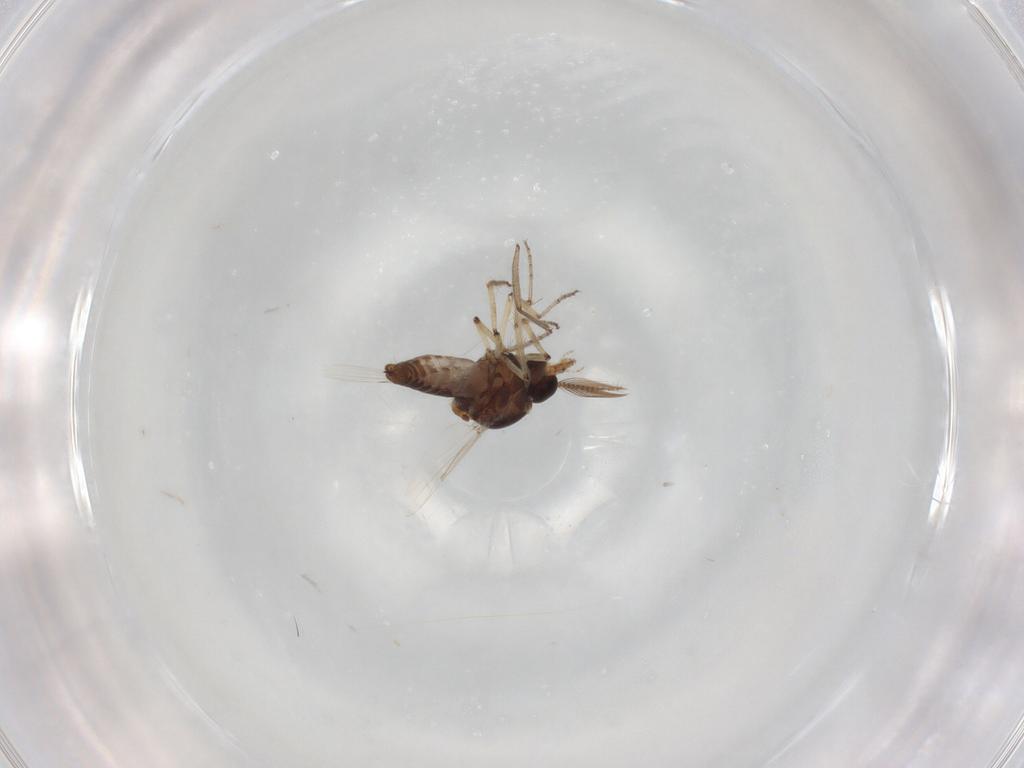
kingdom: Animalia
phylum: Arthropoda
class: Insecta
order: Diptera
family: Ceratopogonidae
